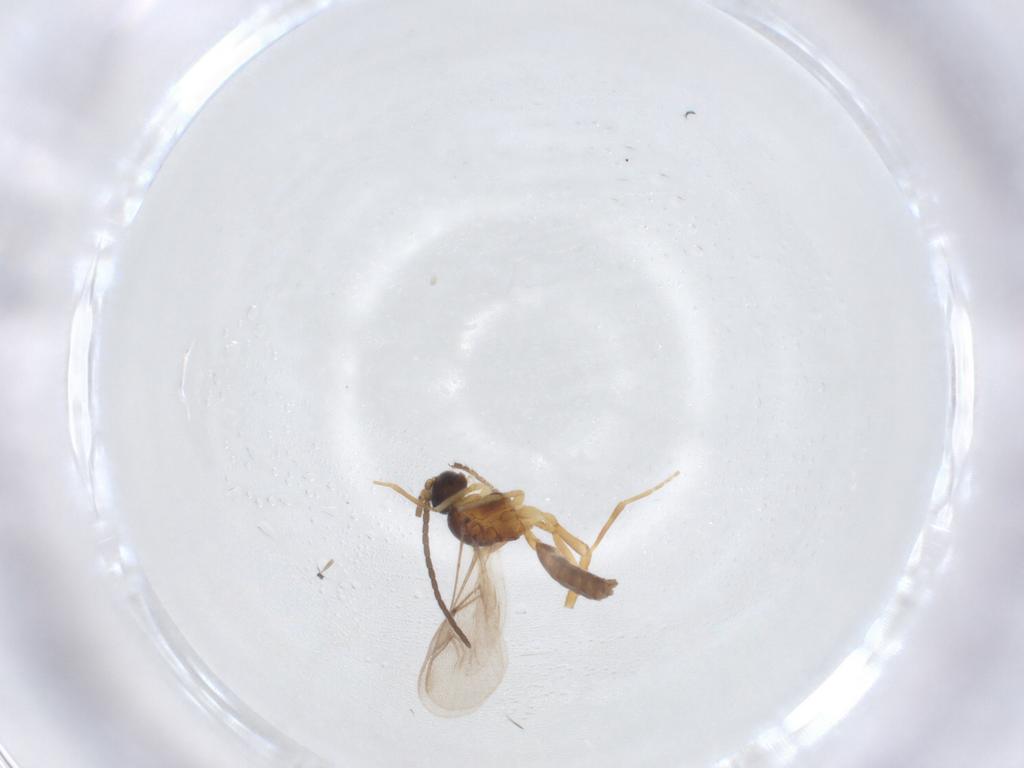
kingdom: Animalia
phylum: Arthropoda
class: Insecta
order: Hymenoptera
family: Braconidae
